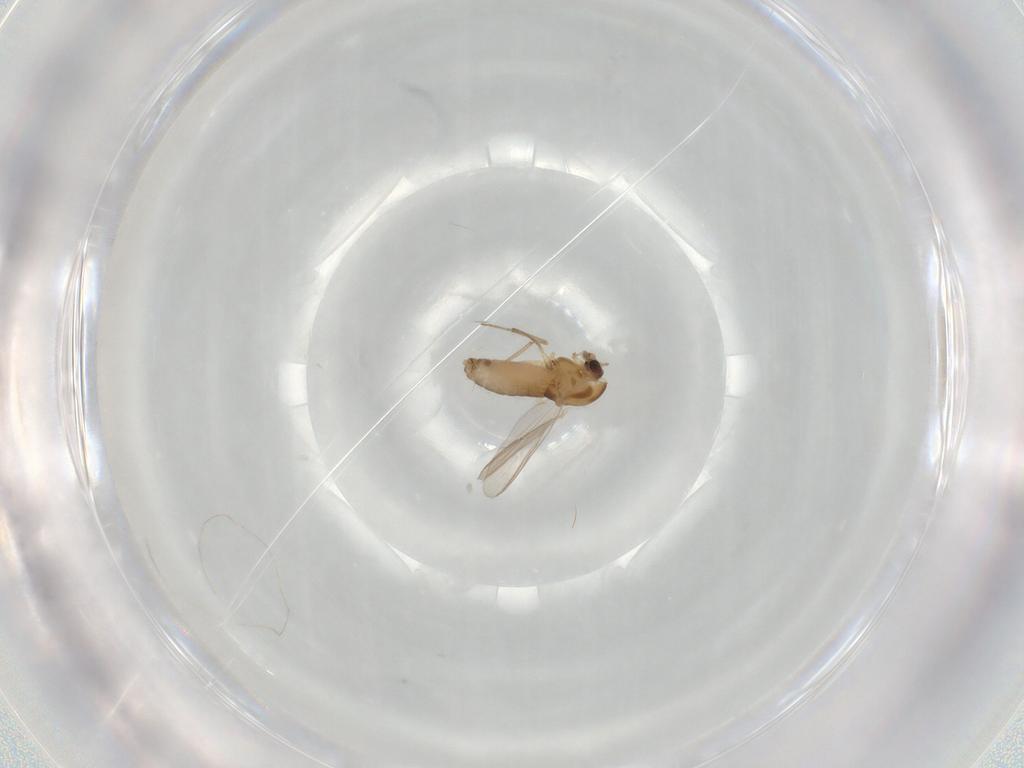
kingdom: Animalia
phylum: Arthropoda
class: Insecta
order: Diptera
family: Chironomidae
